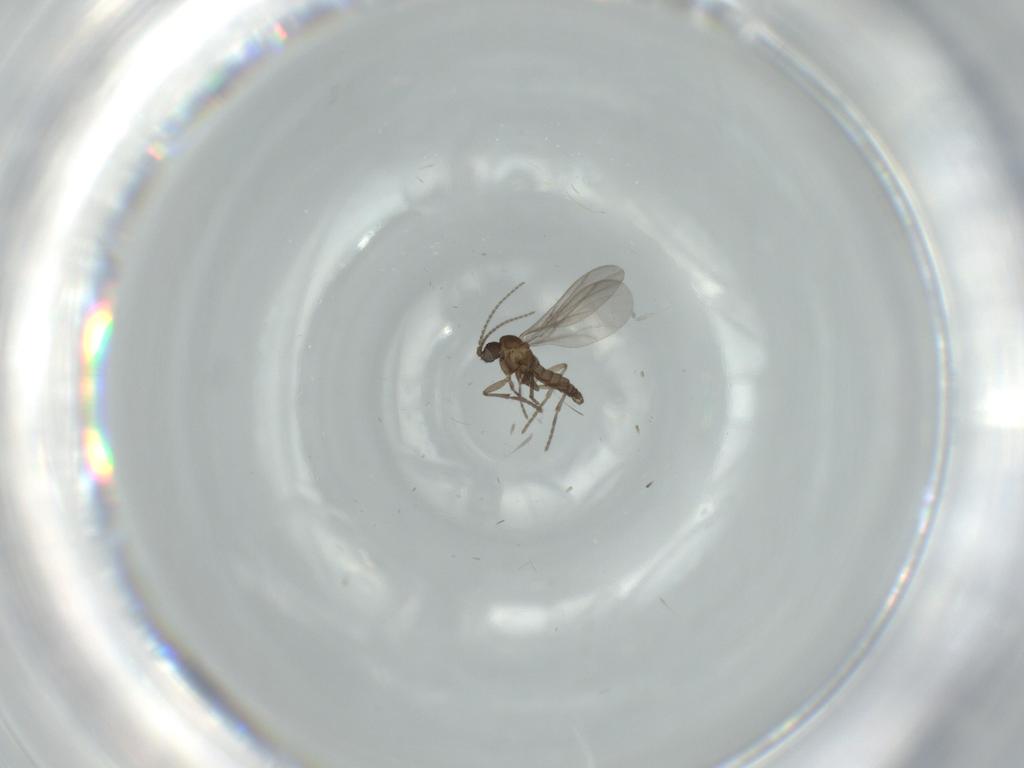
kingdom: Animalia
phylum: Arthropoda
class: Insecta
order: Diptera
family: Sciaridae
